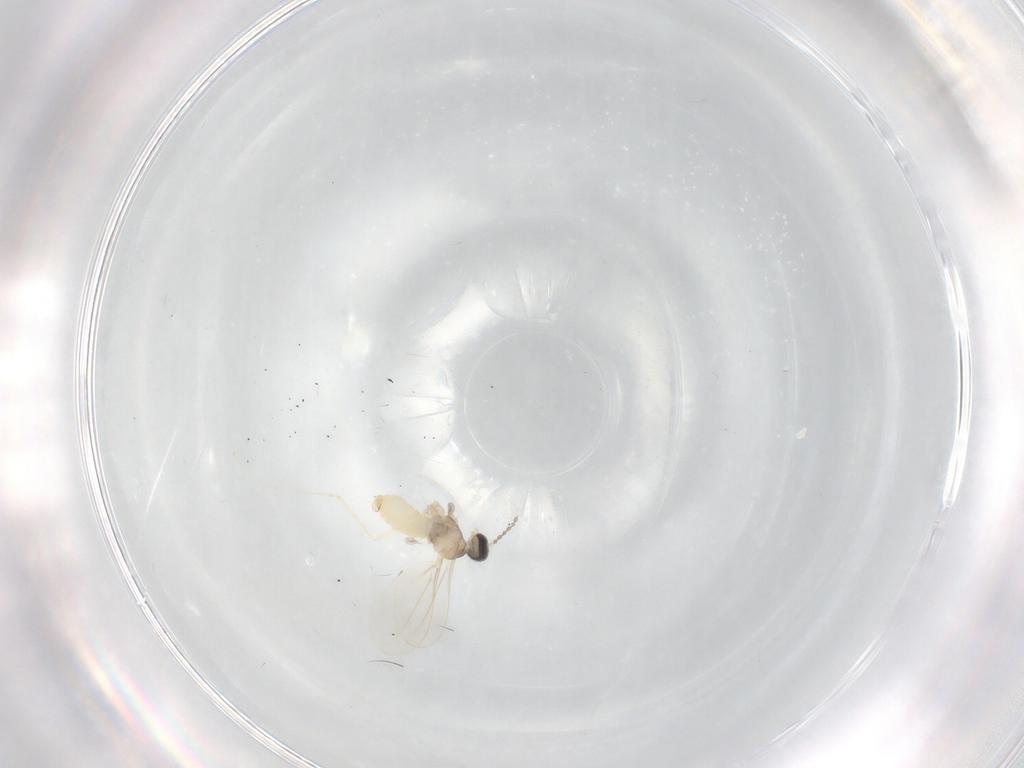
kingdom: Animalia
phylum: Arthropoda
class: Insecta
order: Diptera
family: Cecidomyiidae
